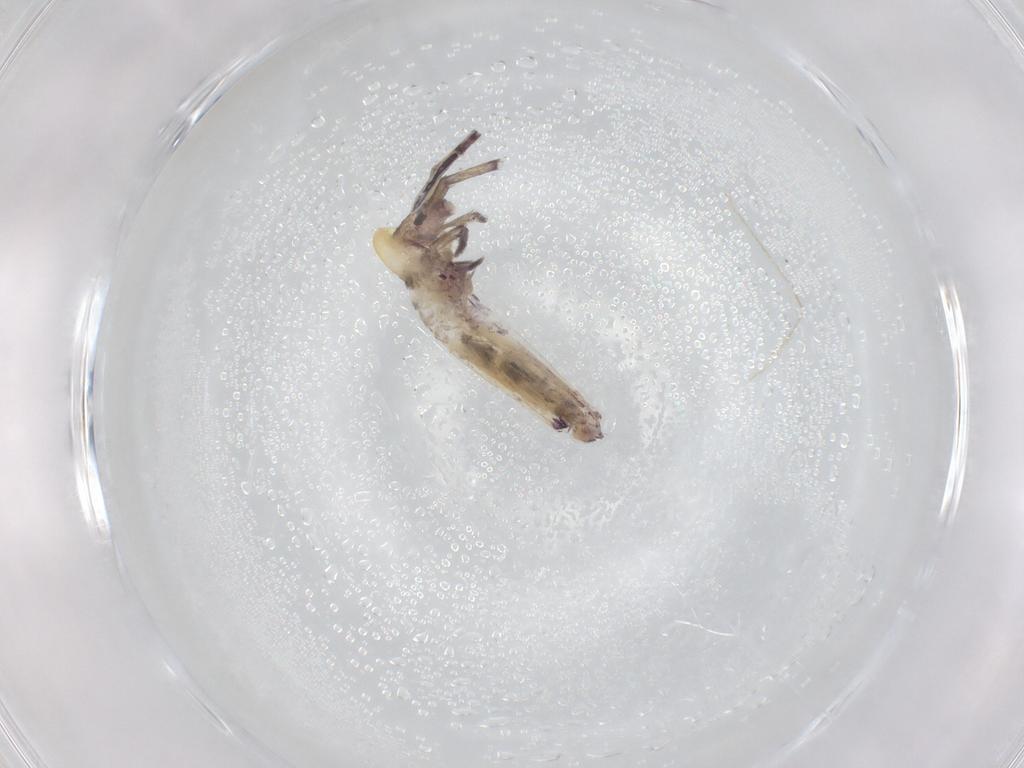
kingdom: Animalia
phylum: Arthropoda
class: Collembola
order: Entomobryomorpha
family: Entomobryidae
